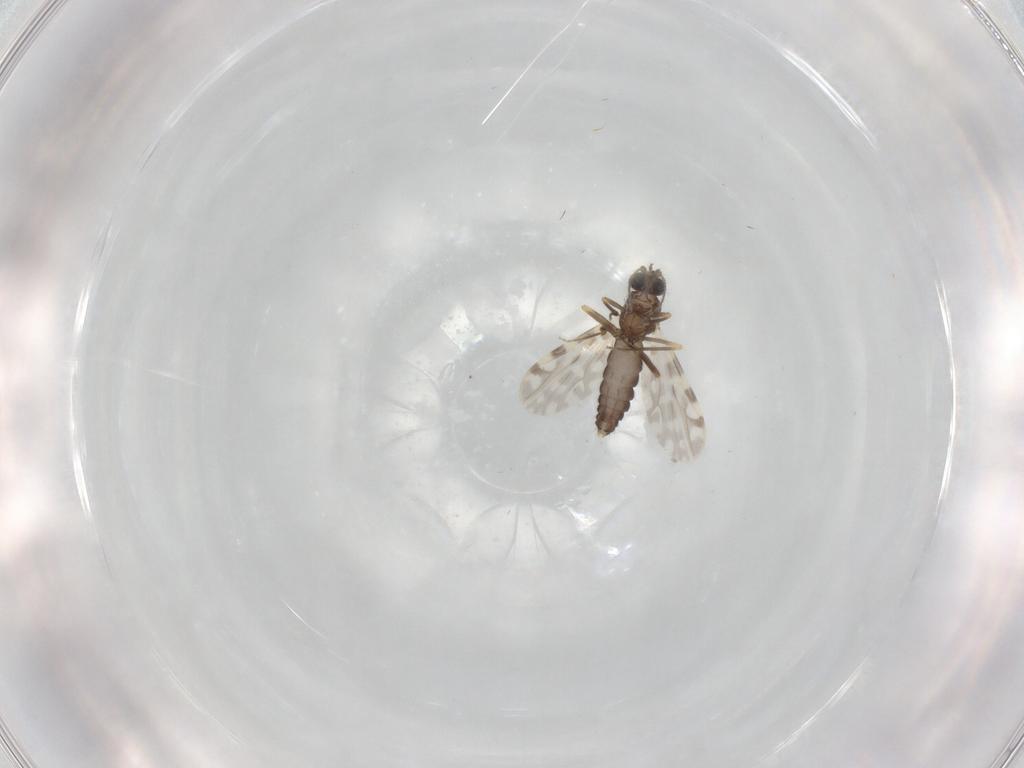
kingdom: Animalia
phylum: Arthropoda
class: Insecta
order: Diptera
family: Ceratopogonidae
